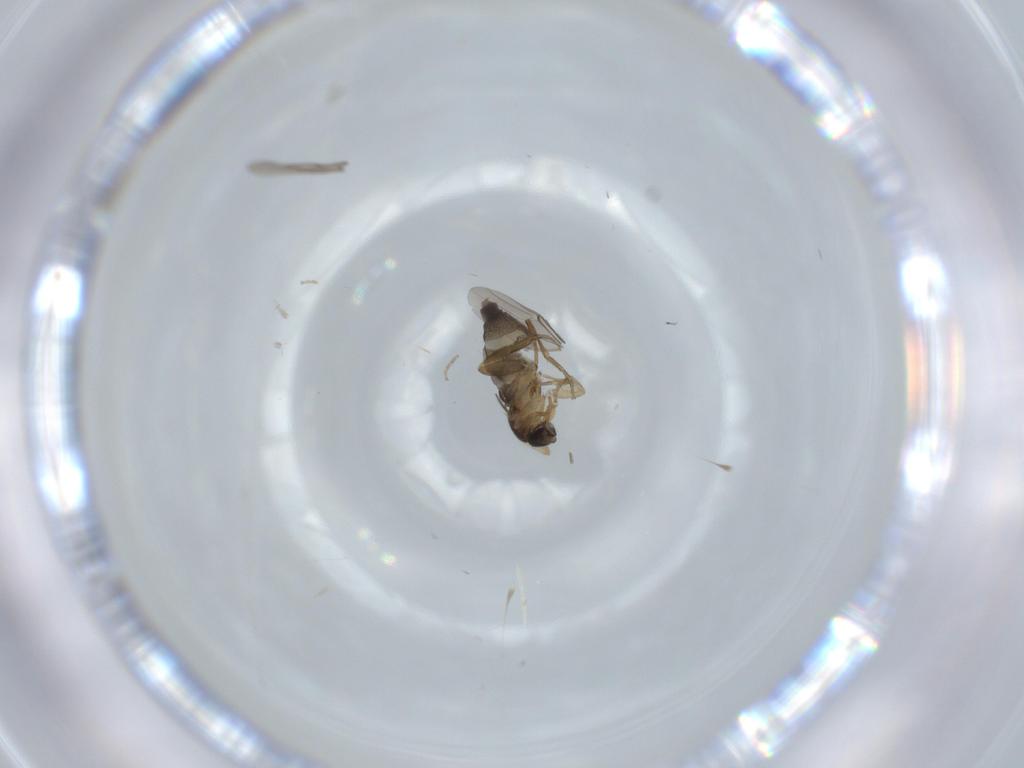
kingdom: Animalia
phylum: Arthropoda
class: Insecta
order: Diptera
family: Phoridae
